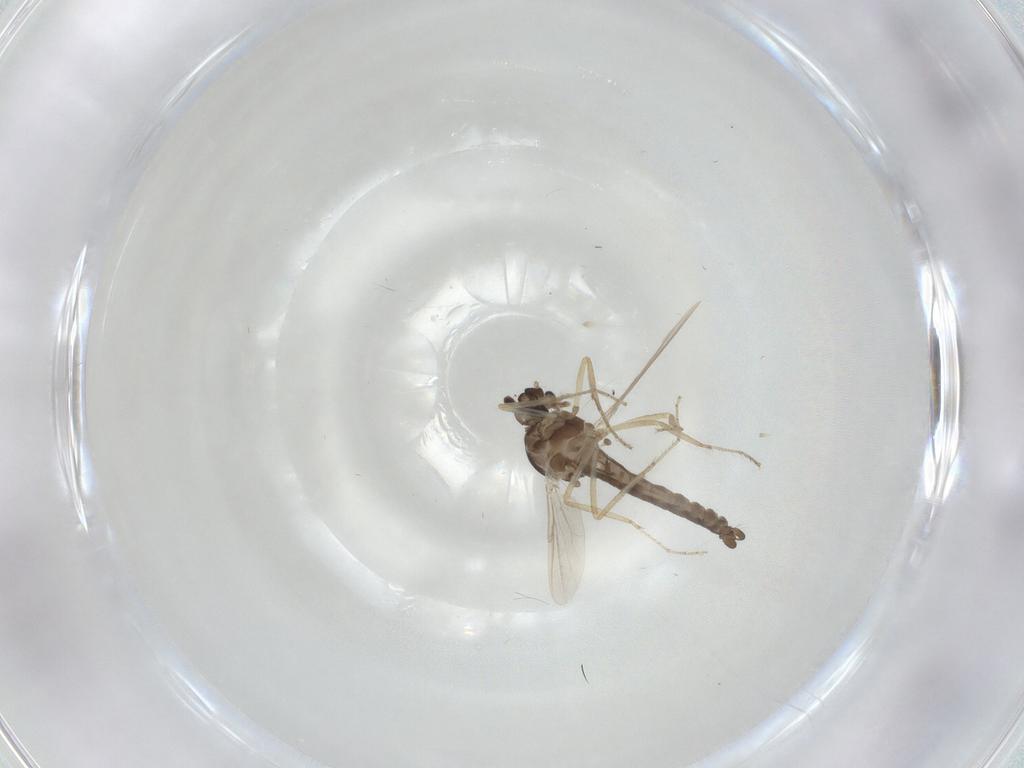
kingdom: Animalia
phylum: Arthropoda
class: Insecta
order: Diptera
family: Ceratopogonidae
